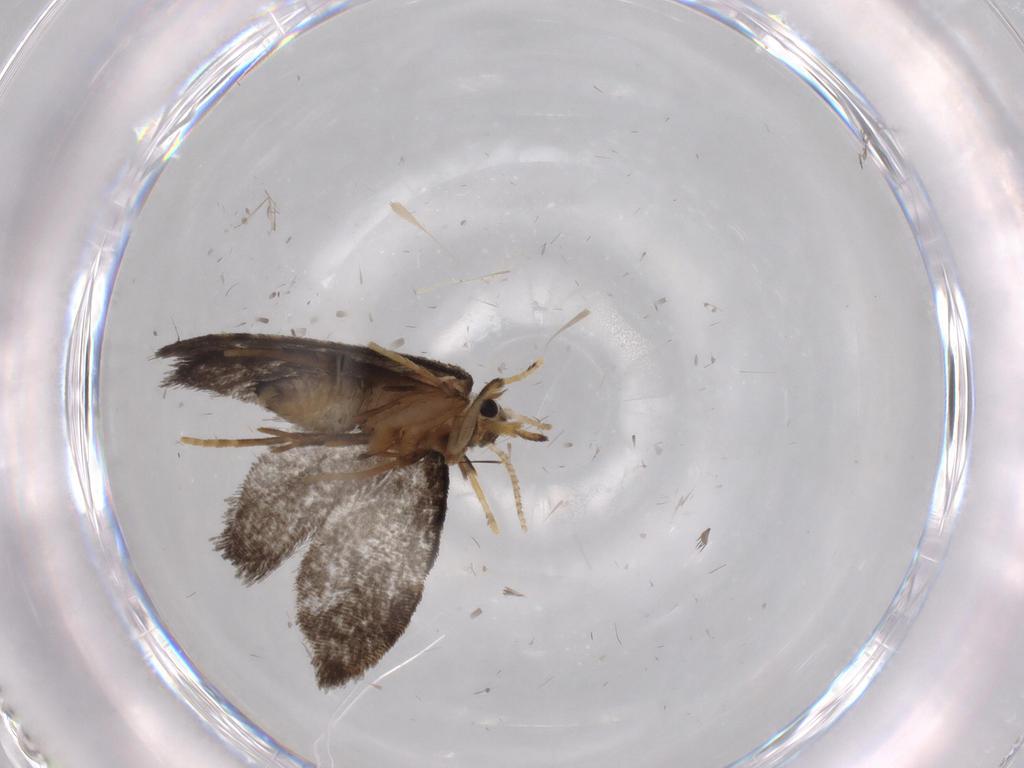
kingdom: Animalia
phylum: Arthropoda
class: Insecta
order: Lepidoptera
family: Psychidae
